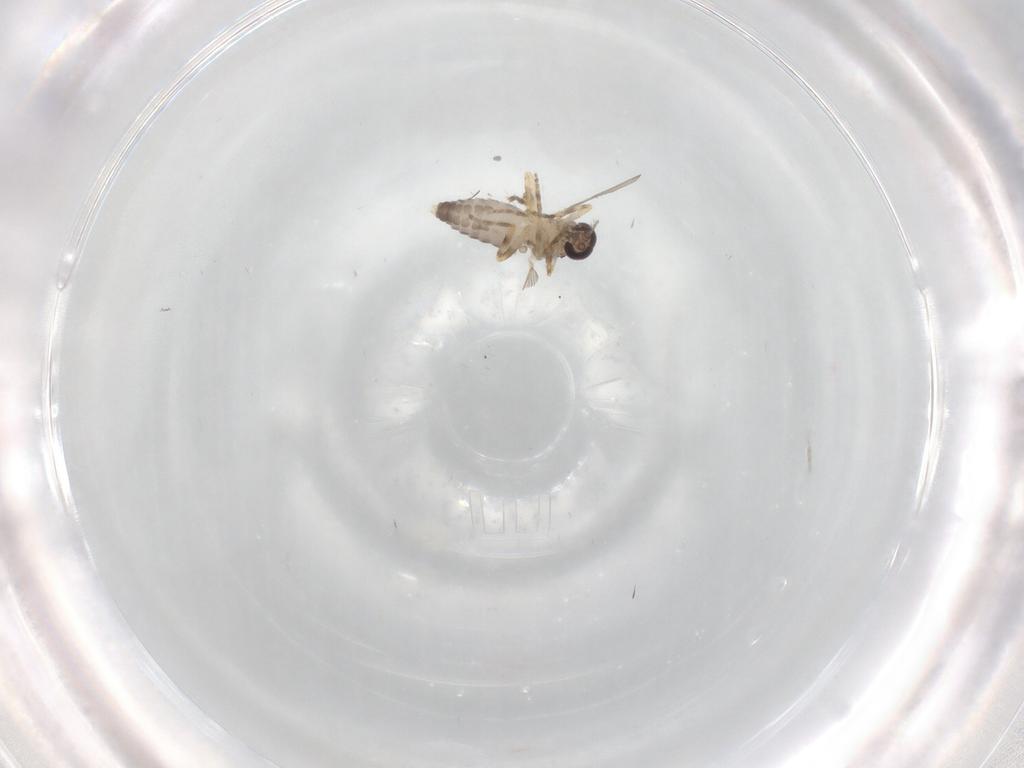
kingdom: Animalia
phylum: Arthropoda
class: Insecta
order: Diptera
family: Ceratopogonidae
